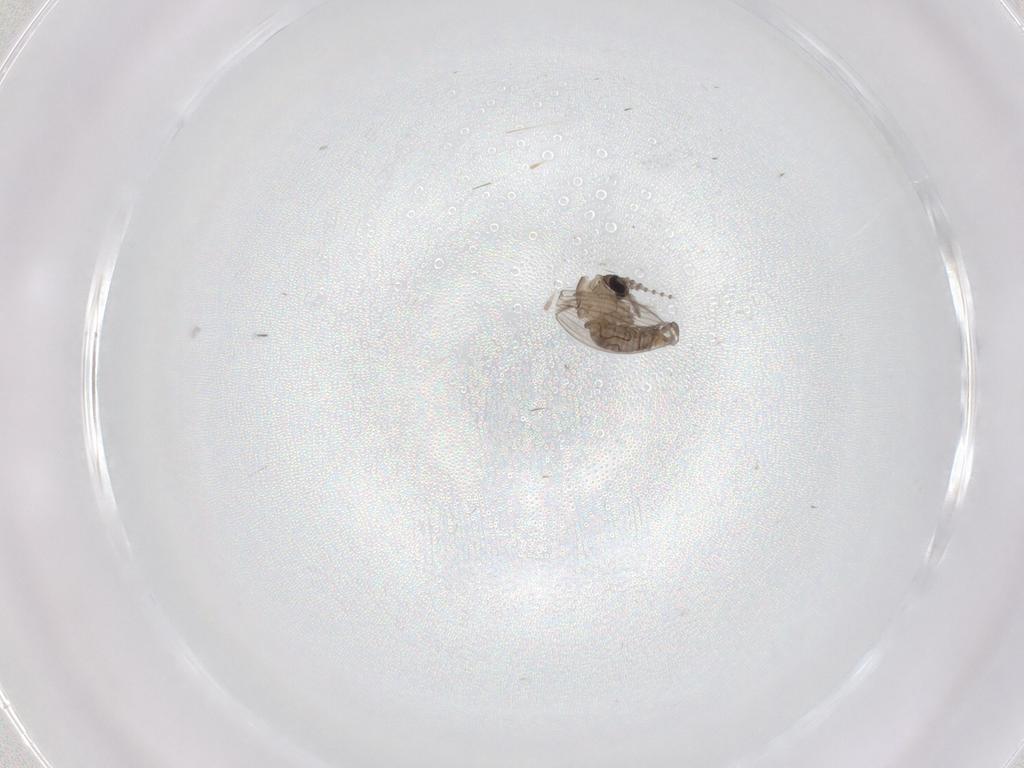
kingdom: Animalia
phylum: Arthropoda
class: Insecta
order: Diptera
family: Psychodidae
